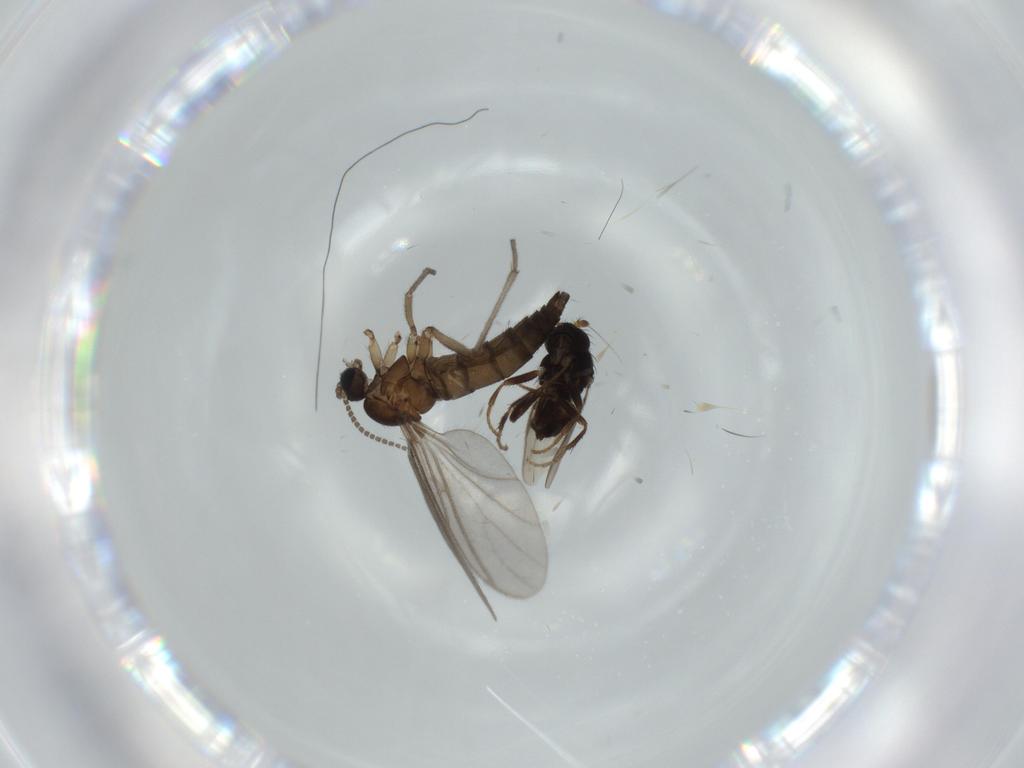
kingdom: Animalia
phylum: Arthropoda
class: Insecta
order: Diptera
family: Sciaridae
